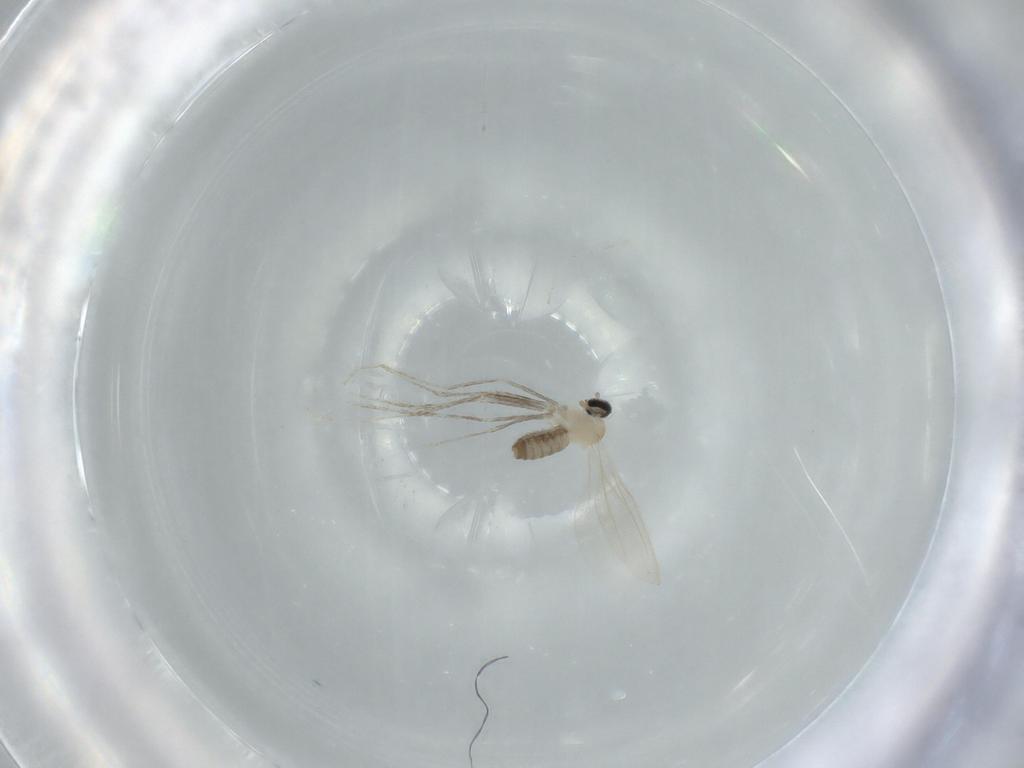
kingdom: Animalia
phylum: Arthropoda
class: Insecta
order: Diptera
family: Cecidomyiidae
